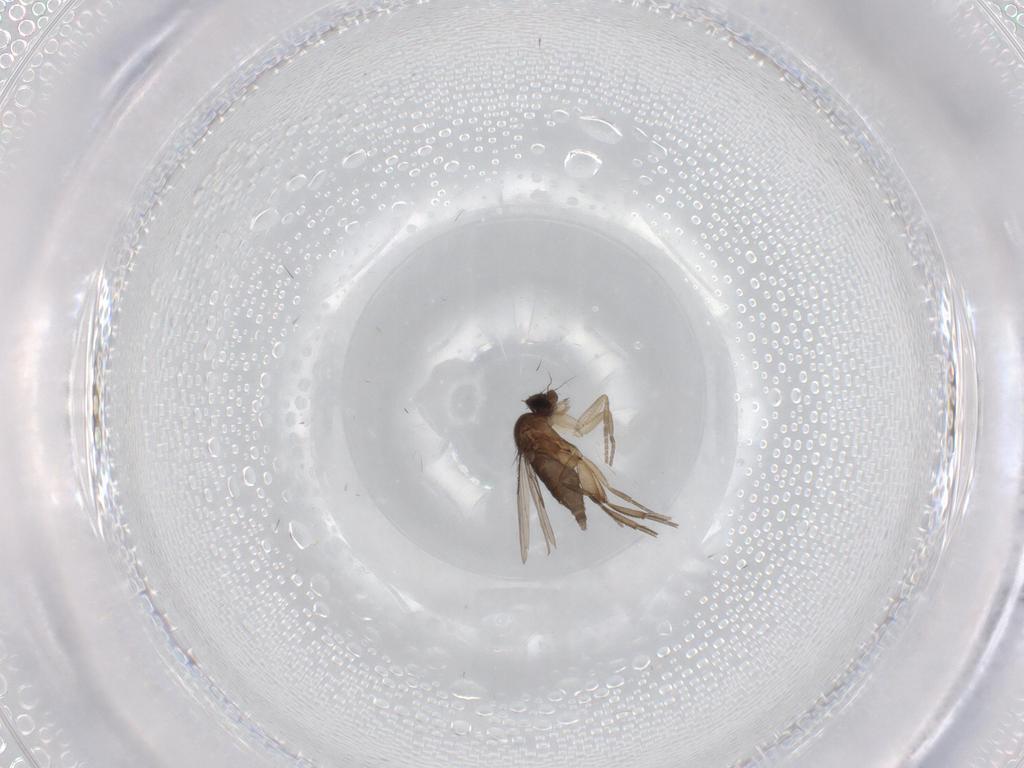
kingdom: Animalia
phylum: Arthropoda
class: Insecta
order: Diptera
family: Phoridae
